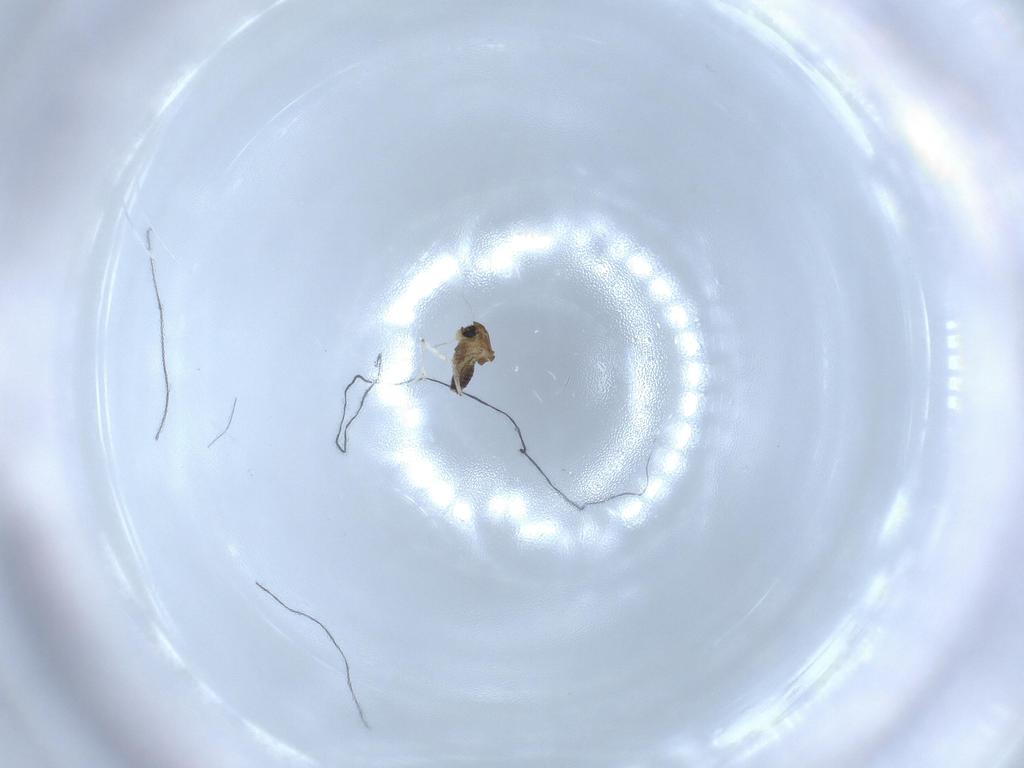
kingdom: Animalia
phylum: Arthropoda
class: Insecta
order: Diptera
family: Chironomidae
